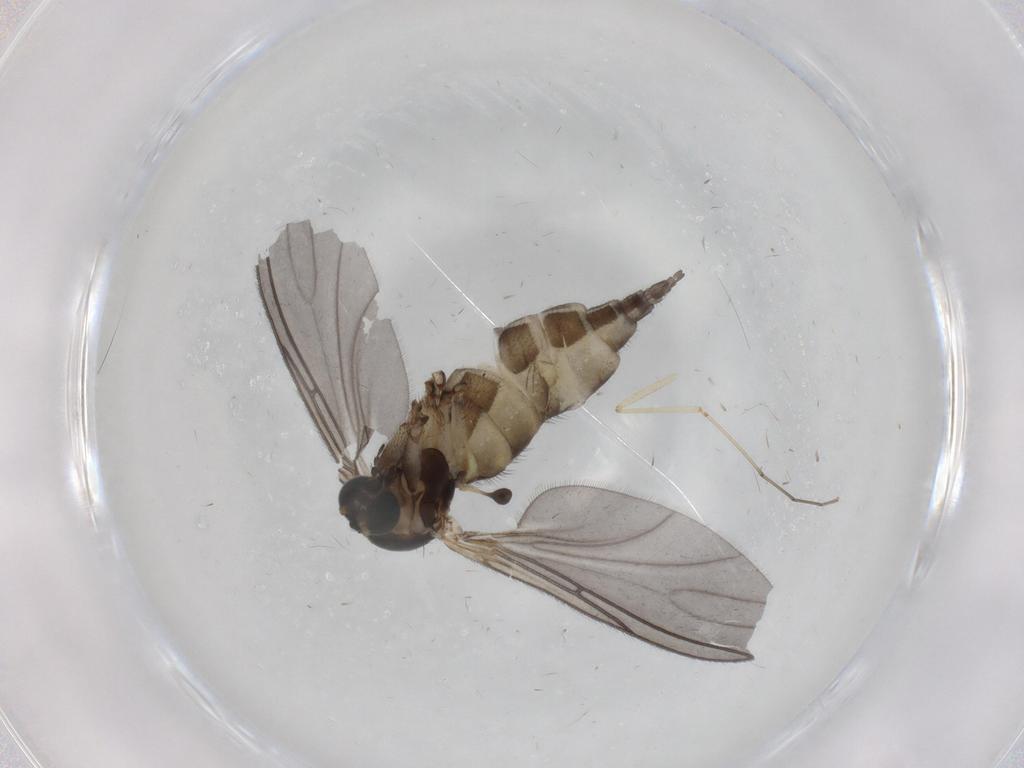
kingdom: Animalia
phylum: Arthropoda
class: Insecta
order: Diptera
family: Sciaridae
